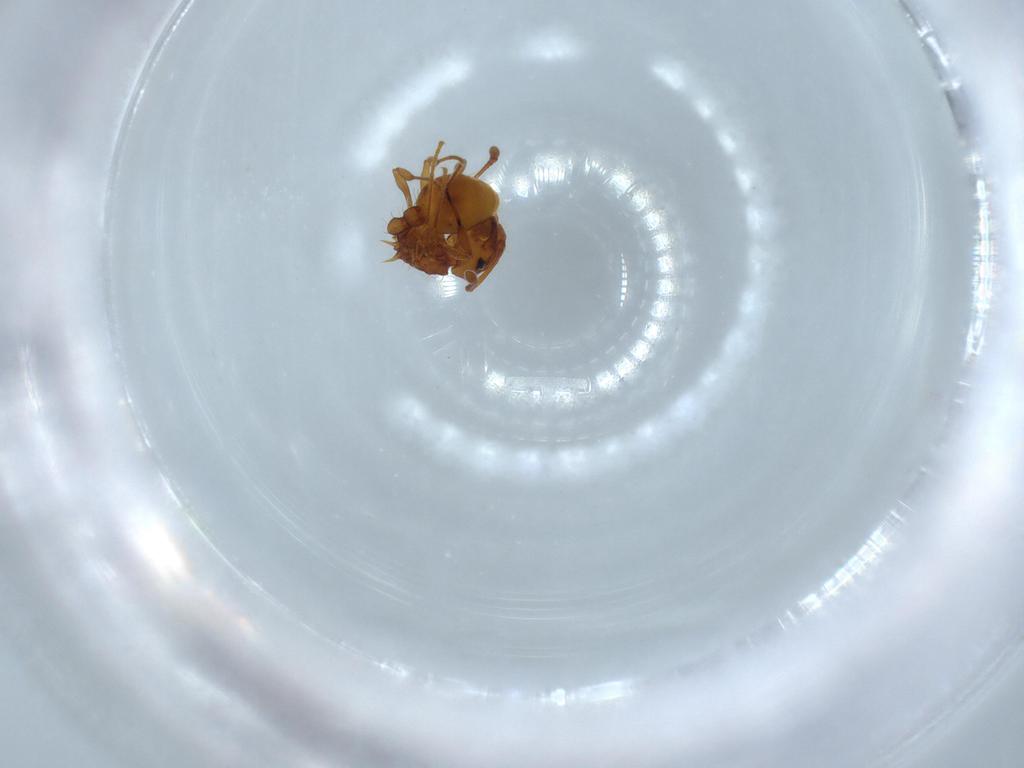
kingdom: Animalia
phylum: Arthropoda
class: Insecta
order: Hymenoptera
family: Formicidae
